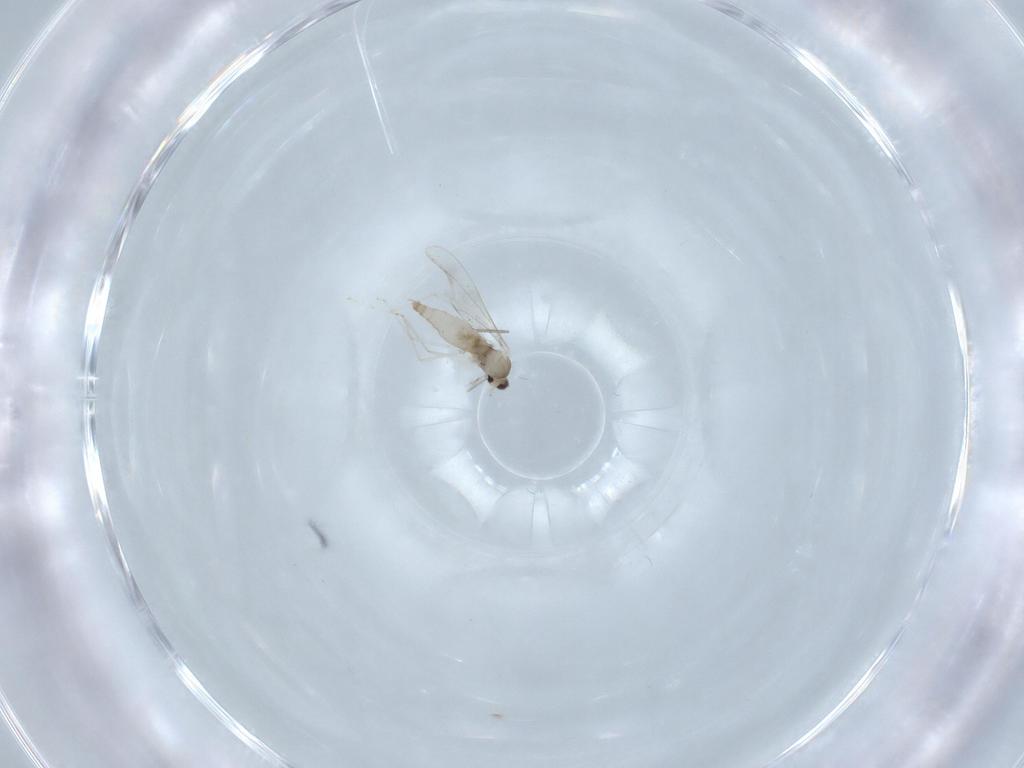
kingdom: Animalia
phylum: Arthropoda
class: Insecta
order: Diptera
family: Chironomidae
